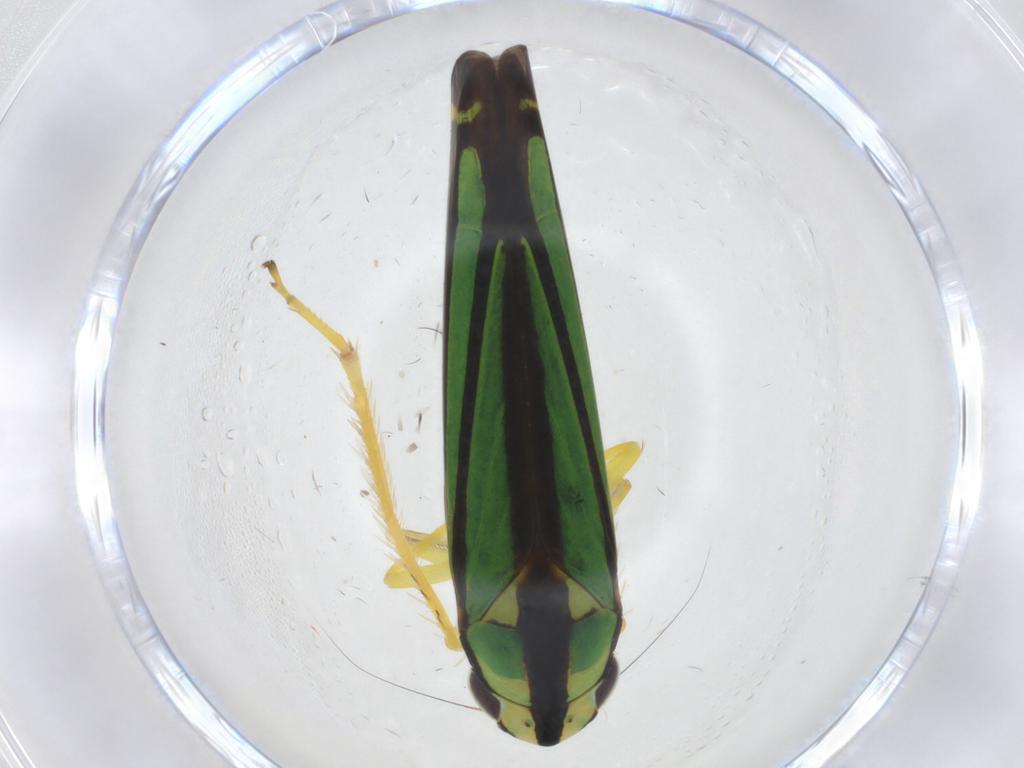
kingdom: Animalia
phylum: Arthropoda
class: Insecta
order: Hemiptera
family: Cicadellidae
